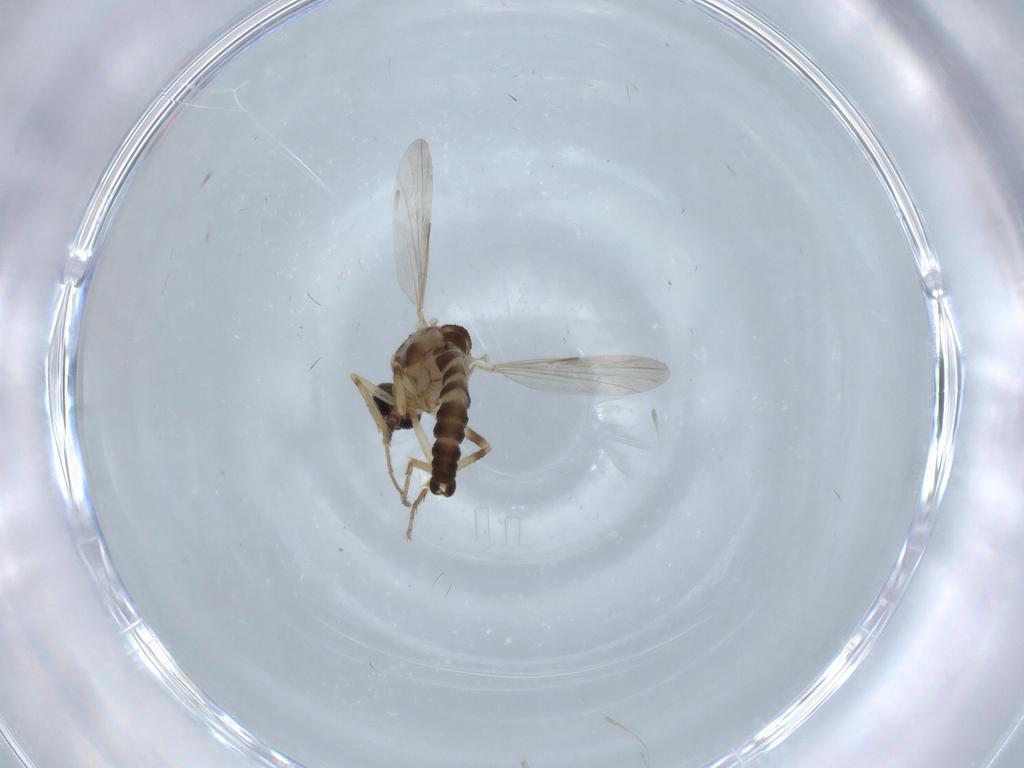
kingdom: Animalia
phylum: Arthropoda
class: Insecta
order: Diptera
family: Ceratopogonidae
